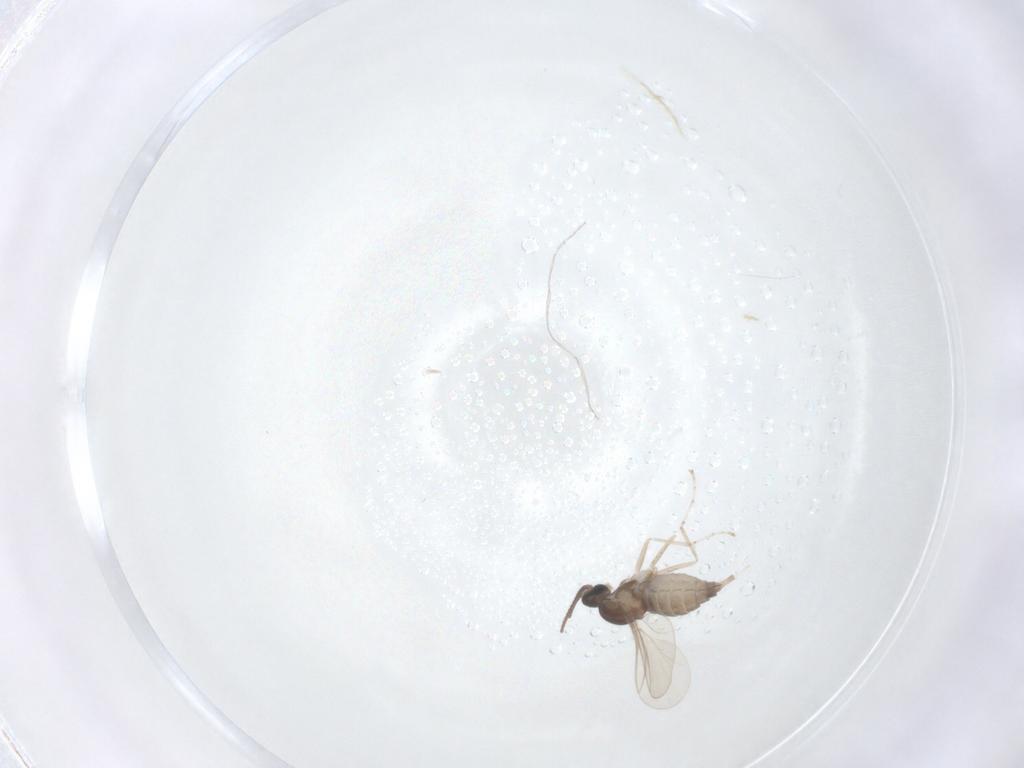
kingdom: Animalia
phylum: Arthropoda
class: Insecta
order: Diptera
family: Cecidomyiidae
